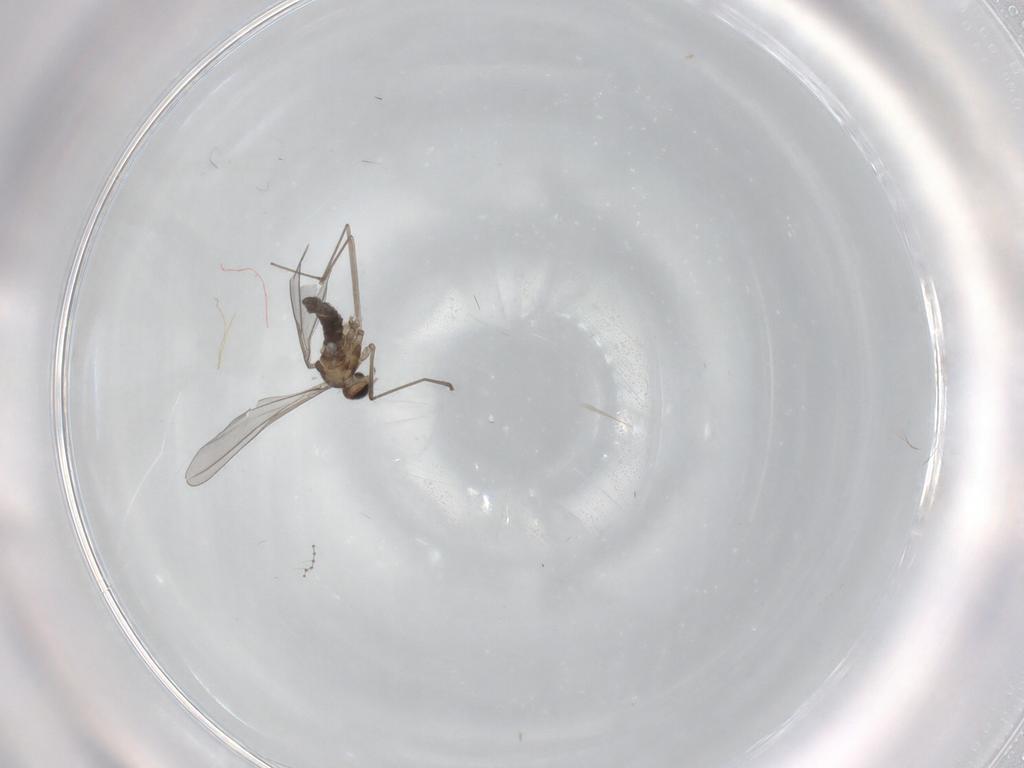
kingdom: Animalia
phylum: Arthropoda
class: Insecta
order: Diptera
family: Cecidomyiidae
